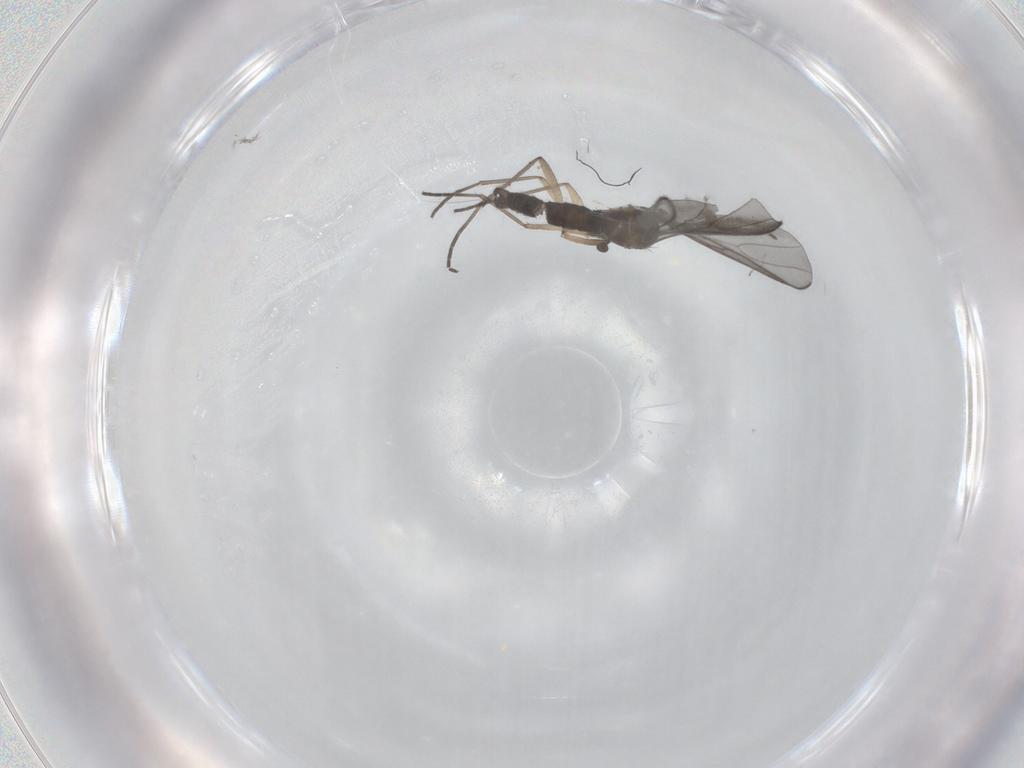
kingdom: Animalia
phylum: Arthropoda
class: Insecta
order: Diptera
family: Sciaridae
